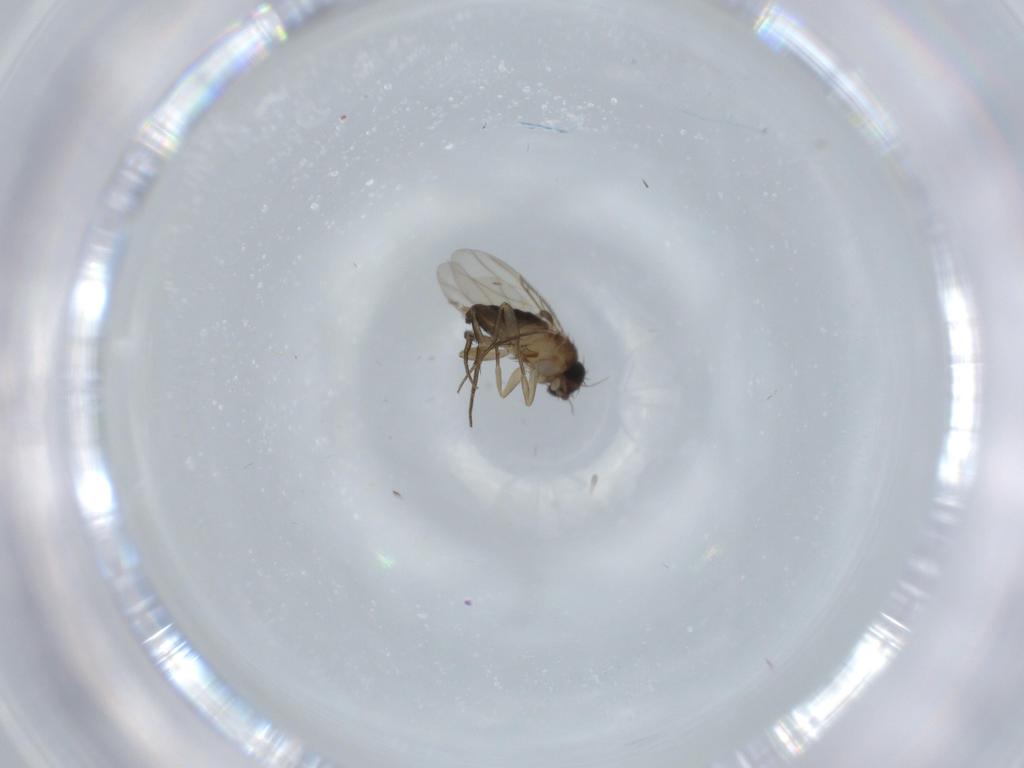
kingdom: Animalia
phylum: Arthropoda
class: Insecta
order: Diptera
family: Phoridae
